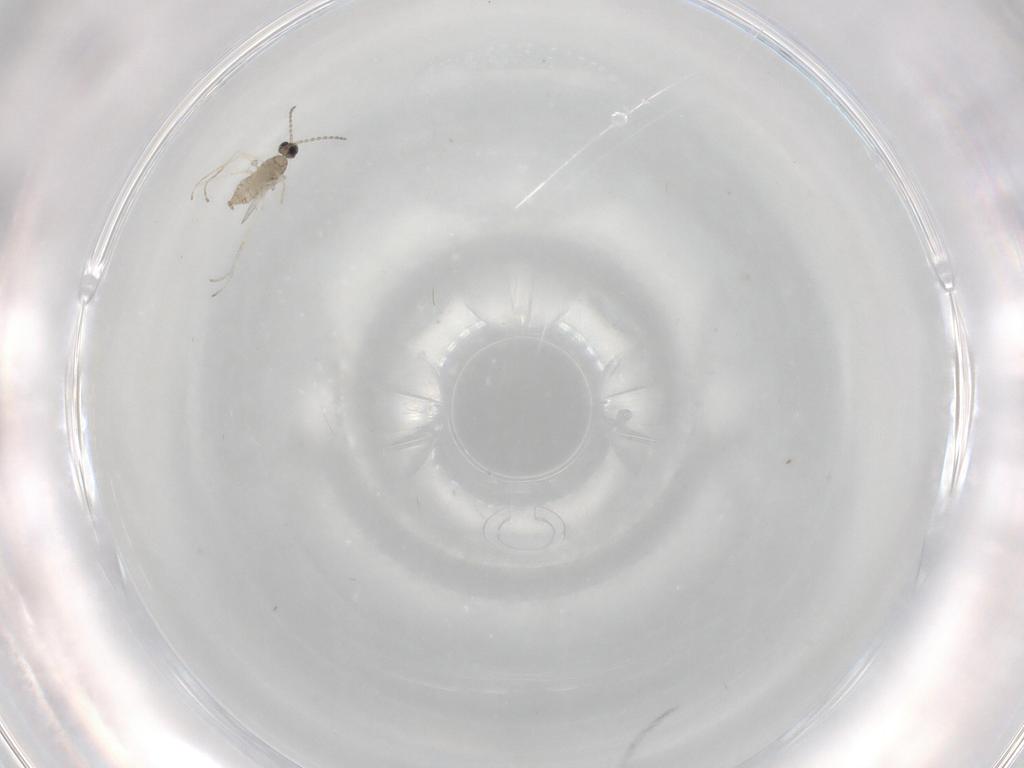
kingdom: Animalia
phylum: Arthropoda
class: Insecta
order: Diptera
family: Cecidomyiidae
